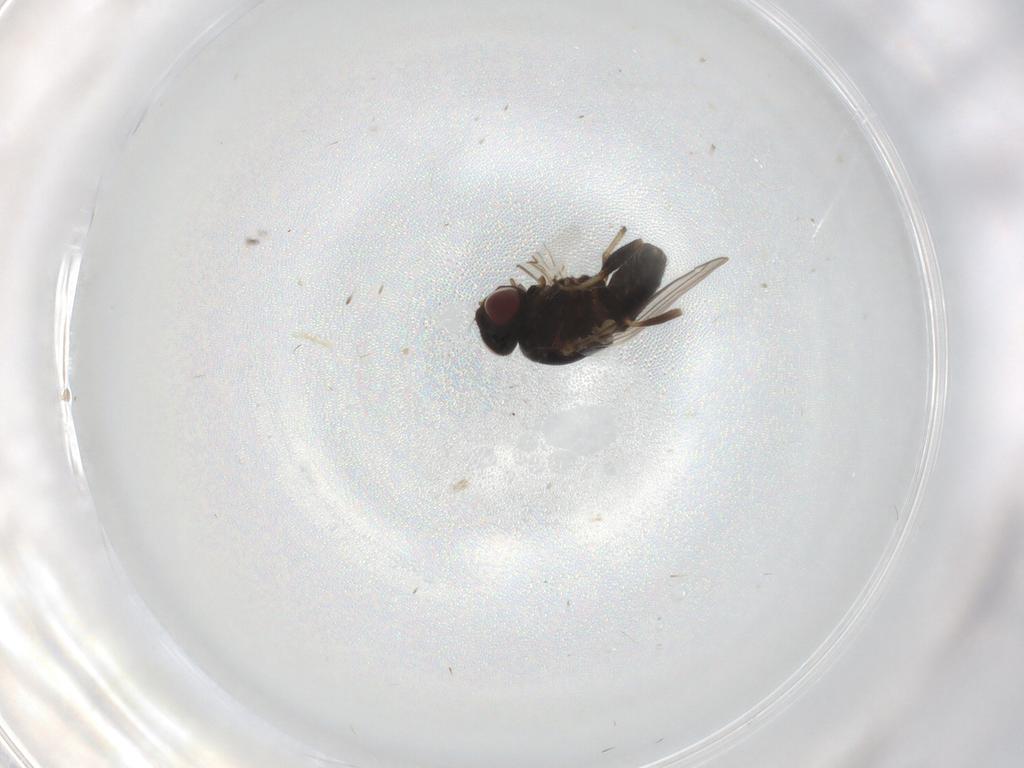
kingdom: Animalia
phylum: Arthropoda
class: Insecta
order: Diptera
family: Chloropidae
